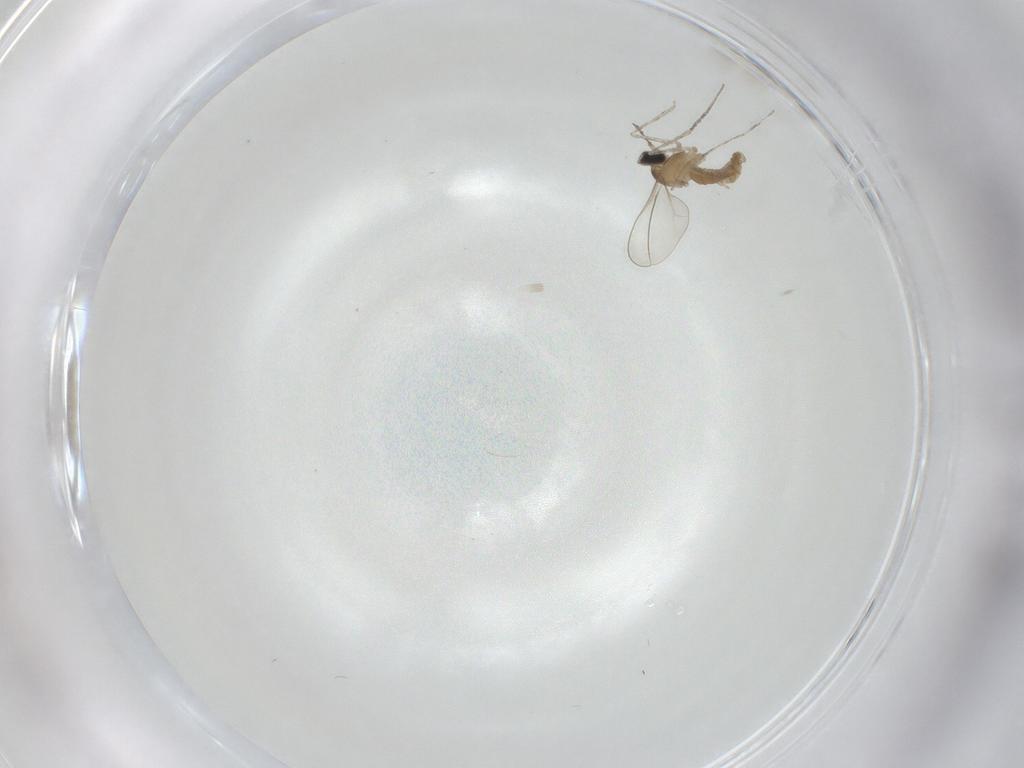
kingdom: Animalia
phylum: Arthropoda
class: Insecta
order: Diptera
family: Cecidomyiidae
